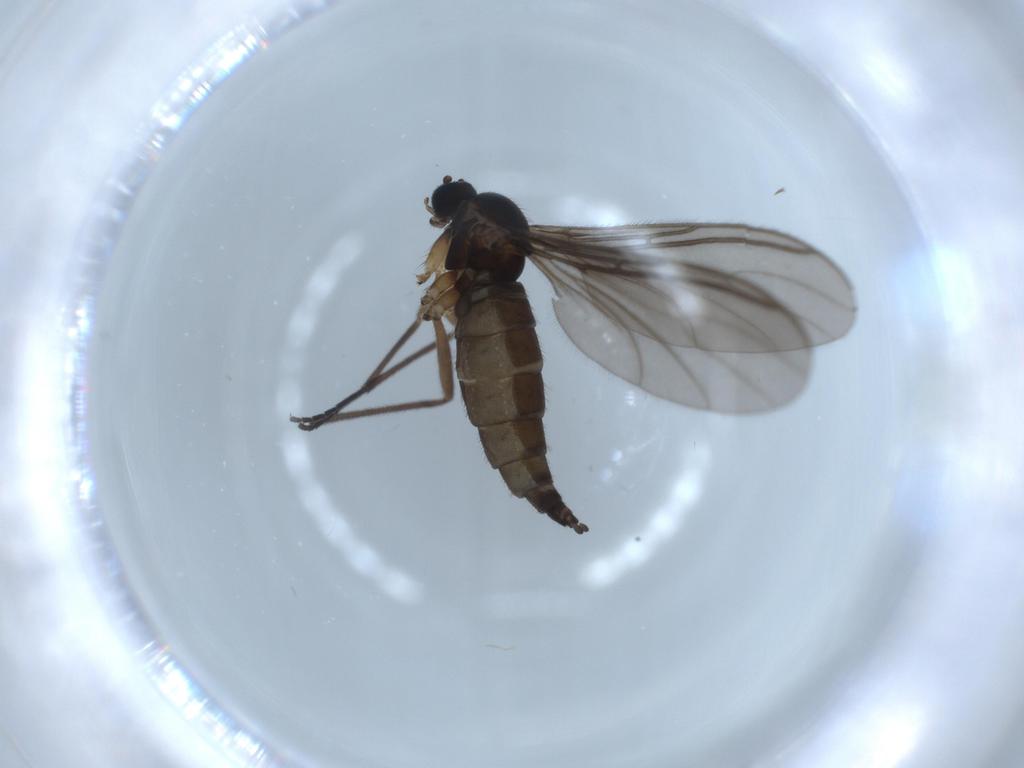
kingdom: Animalia
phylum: Arthropoda
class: Insecta
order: Diptera
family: Sciaridae
